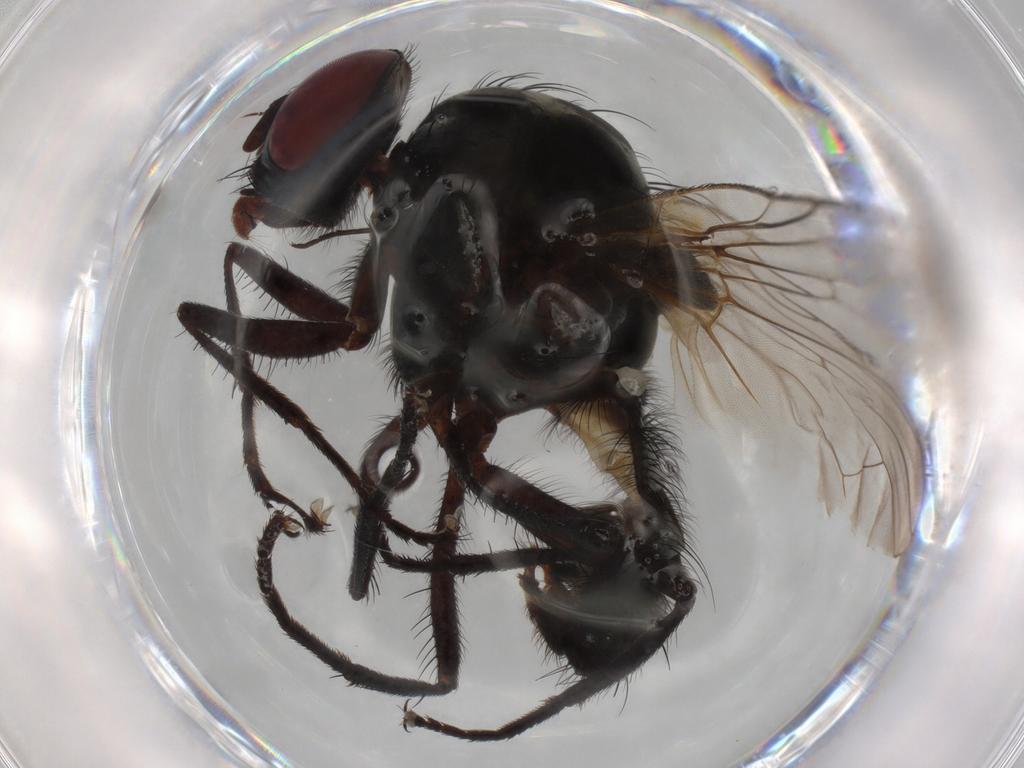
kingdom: Animalia
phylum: Arthropoda
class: Insecta
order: Diptera
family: Anthomyiidae
